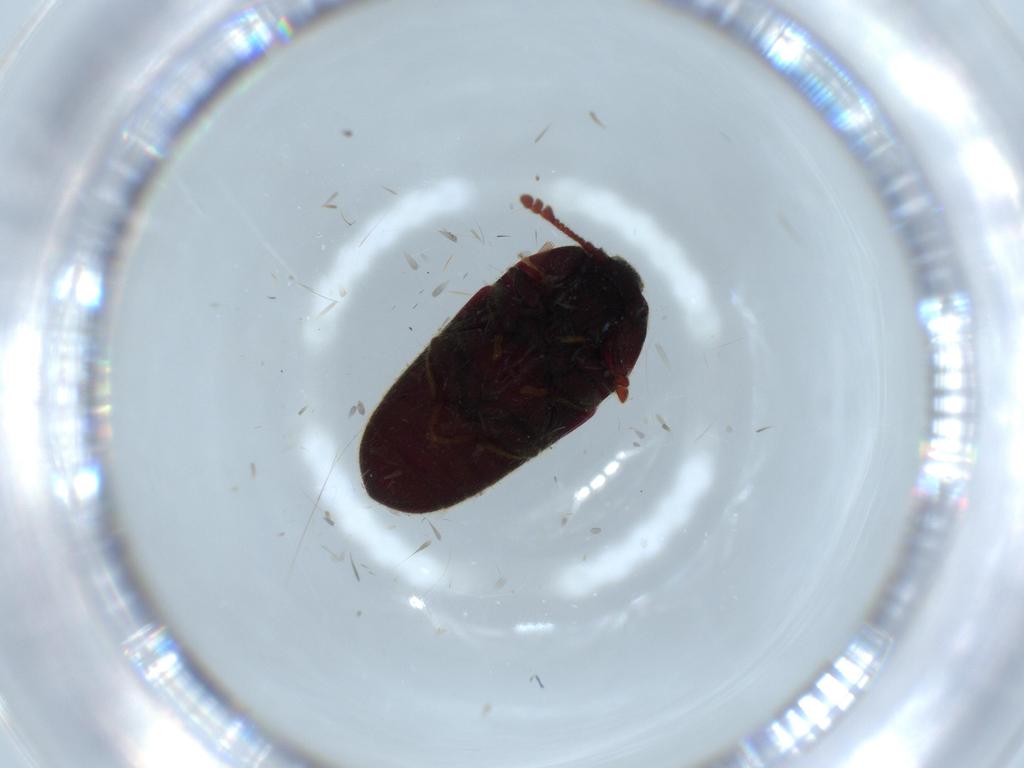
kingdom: Animalia
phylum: Arthropoda
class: Insecta
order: Coleoptera
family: Throscidae
